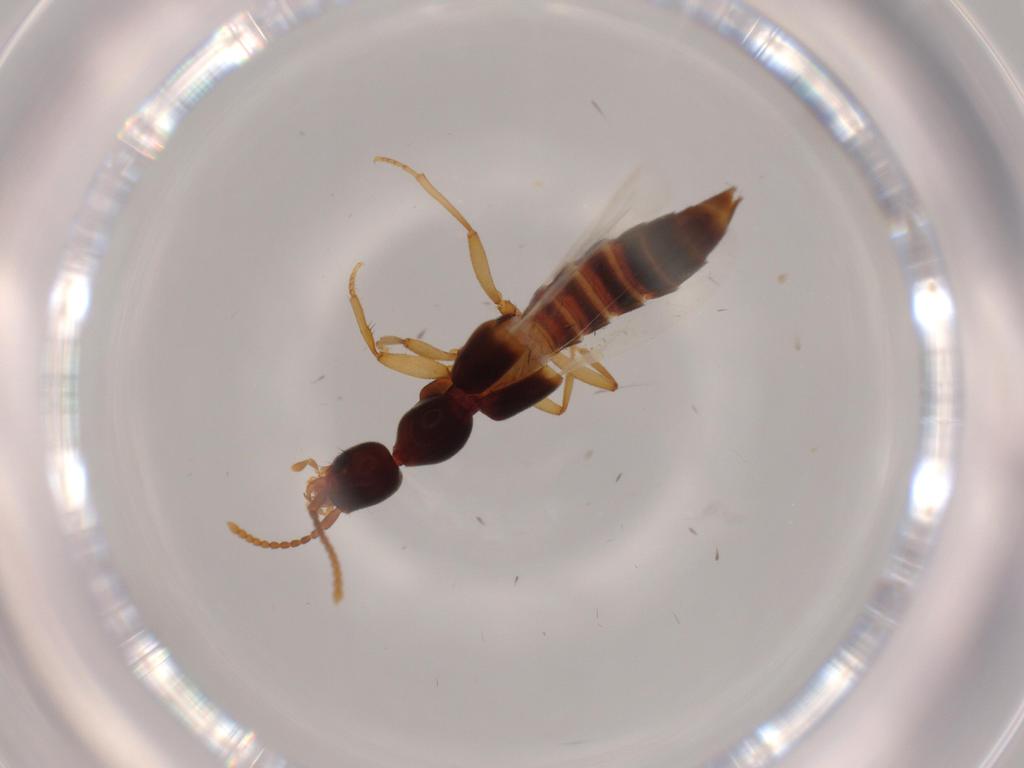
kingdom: Animalia
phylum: Arthropoda
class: Insecta
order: Coleoptera
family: Staphylinidae
